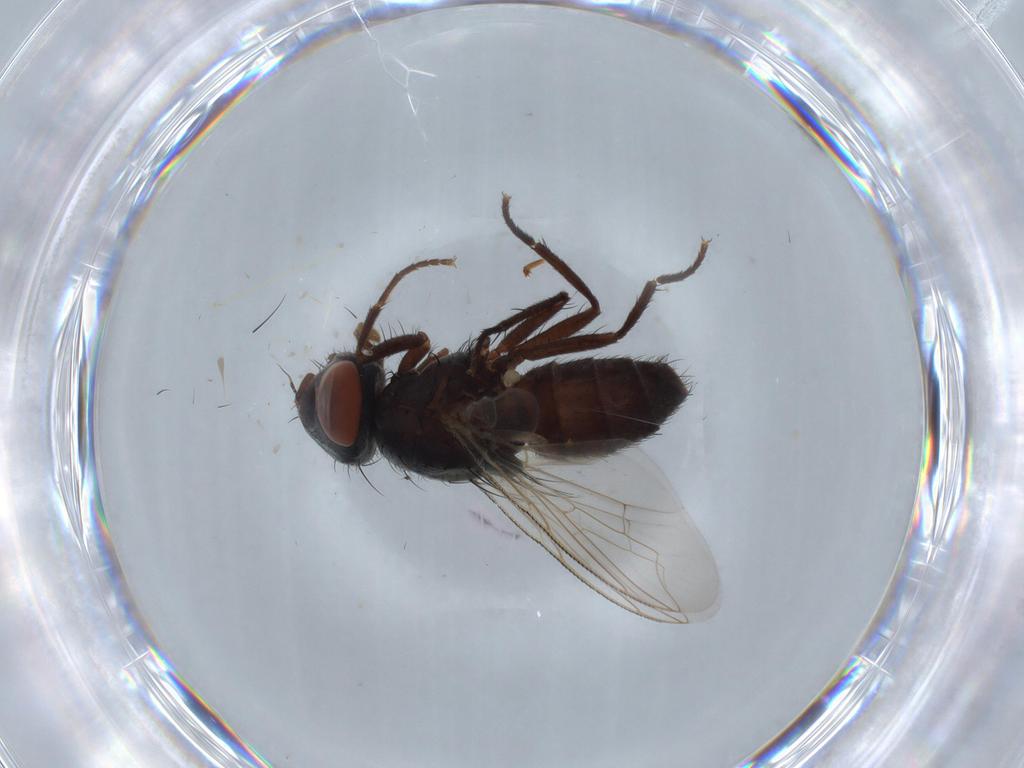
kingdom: Animalia
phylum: Arthropoda
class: Insecta
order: Diptera
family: Sarcophagidae
